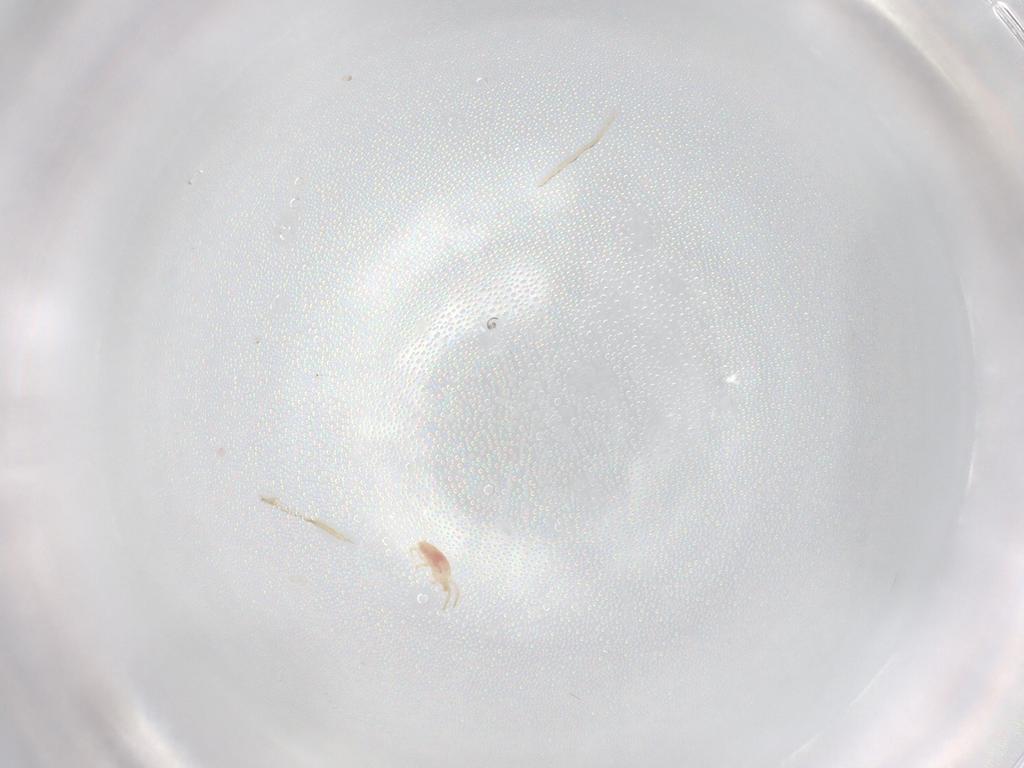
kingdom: Animalia
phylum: Arthropoda
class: Arachnida
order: Mesostigmata
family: Phytoseiidae
